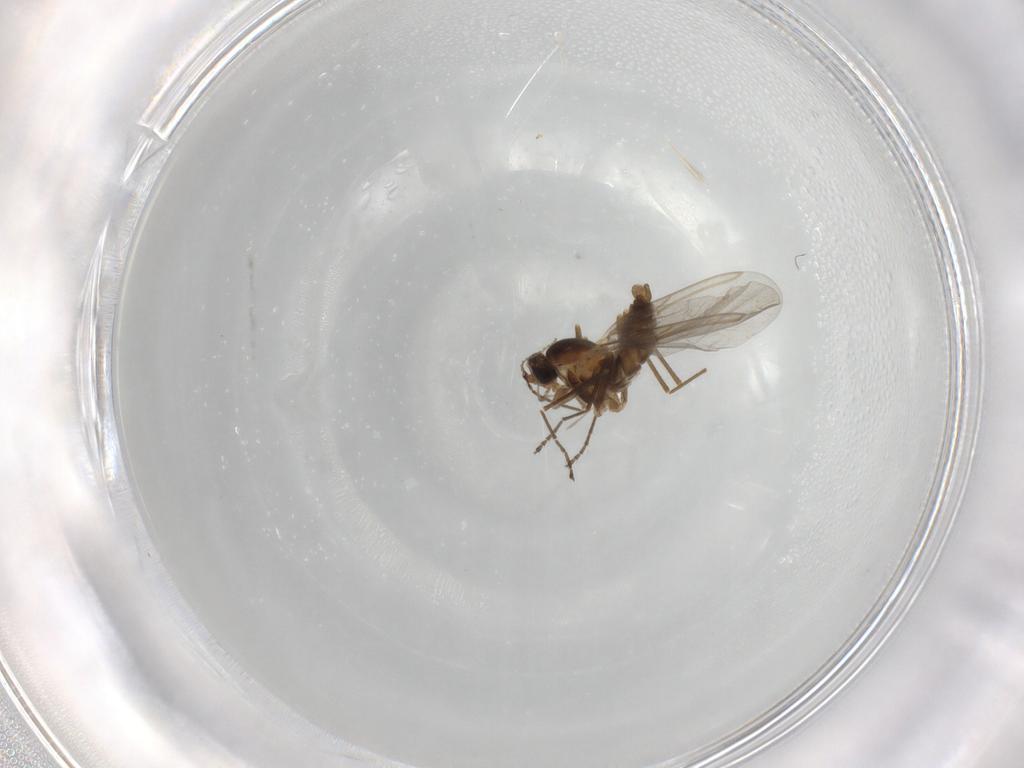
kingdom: Animalia
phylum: Arthropoda
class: Insecta
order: Diptera
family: Cecidomyiidae
